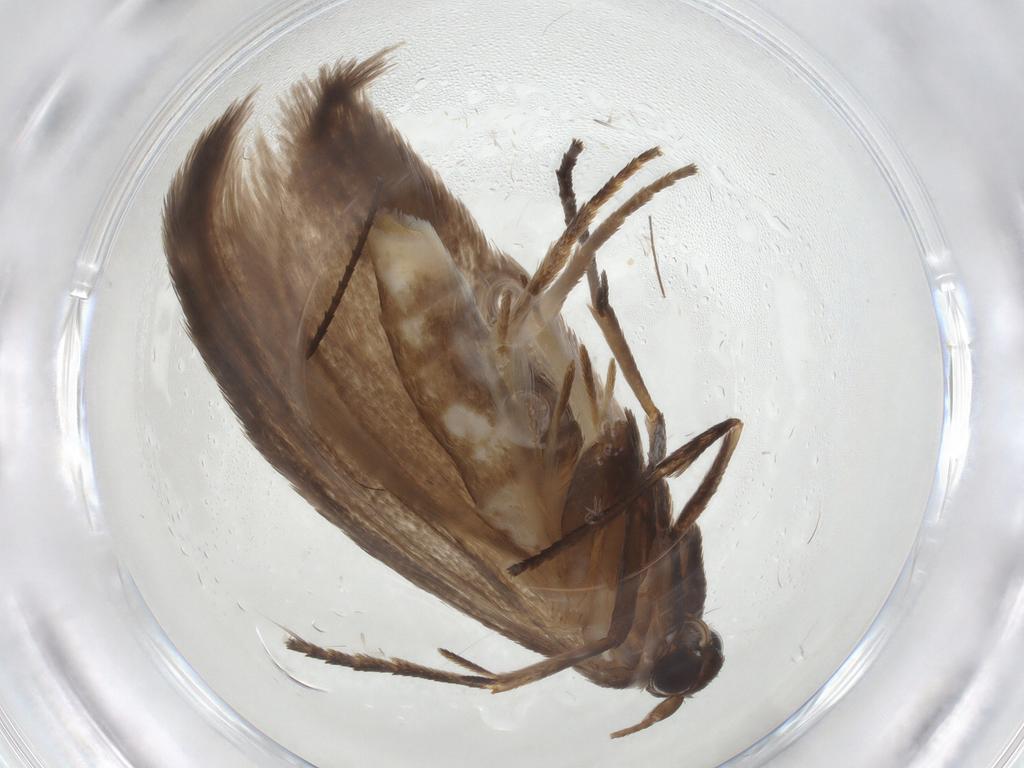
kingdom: Animalia
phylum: Arthropoda
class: Insecta
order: Lepidoptera
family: Roeslerstammiidae
